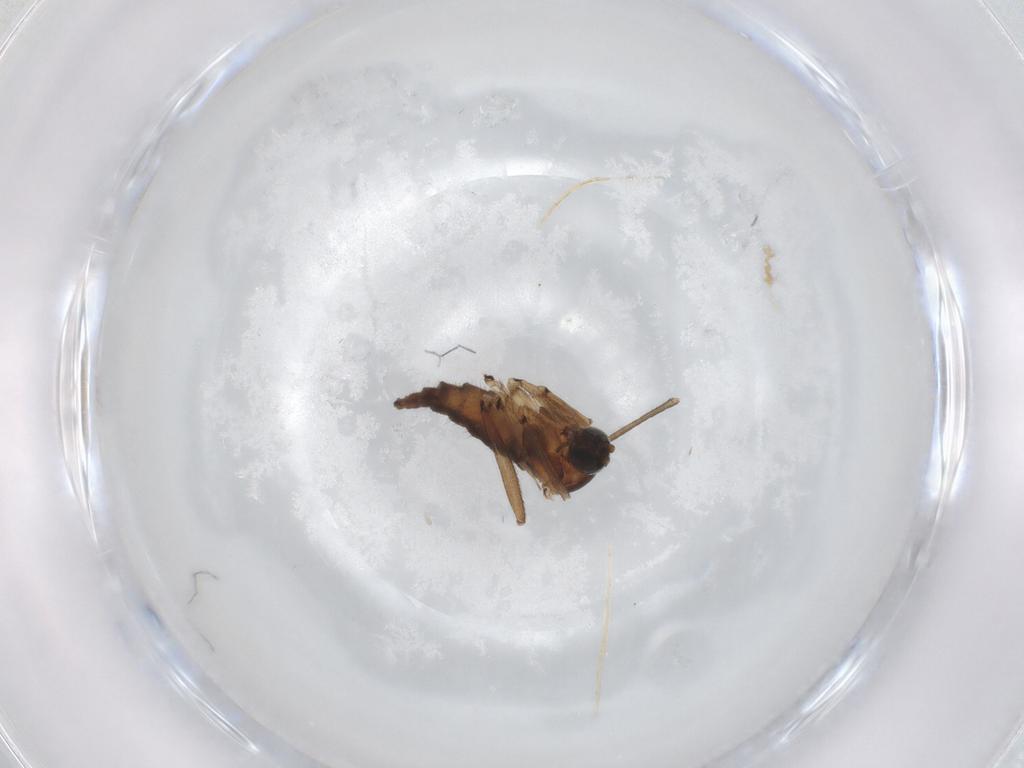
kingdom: Animalia
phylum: Arthropoda
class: Insecta
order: Diptera
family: Sciaridae
